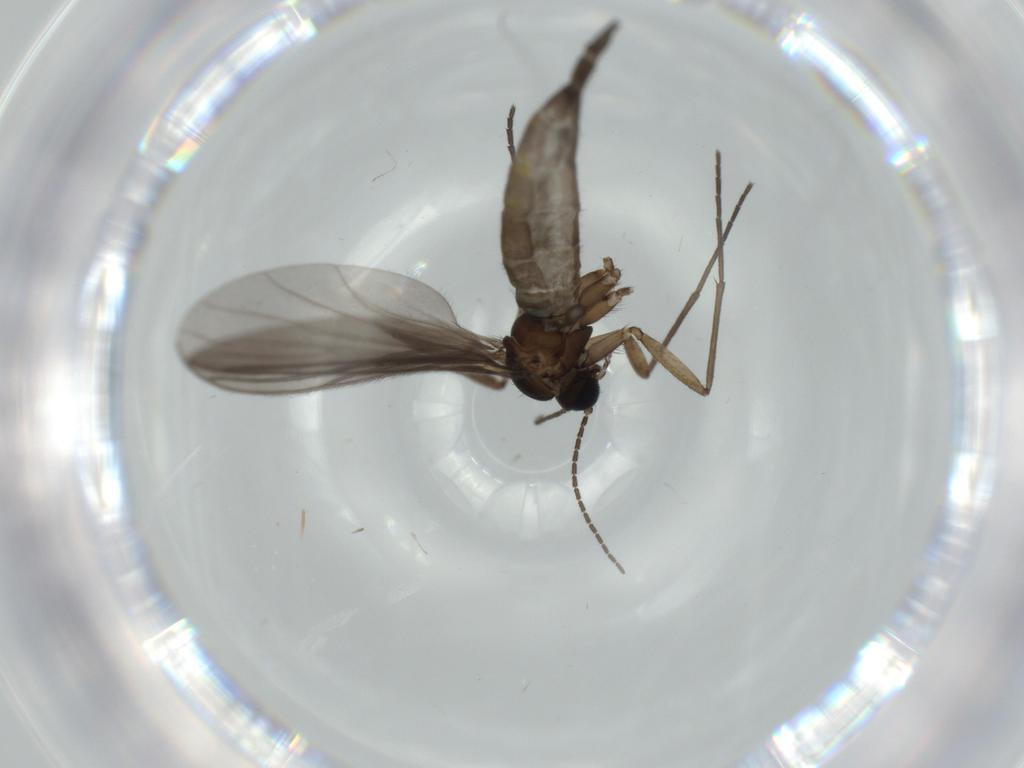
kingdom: Animalia
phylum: Arthropoda
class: Insecta
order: Diptera
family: Sciaridae
